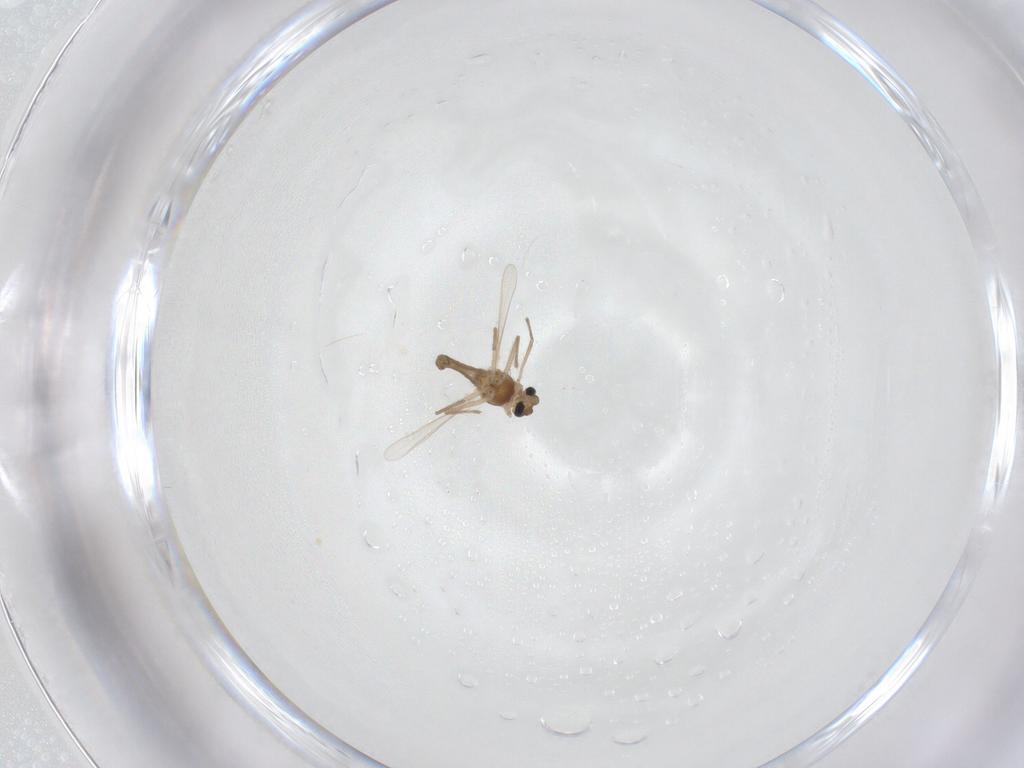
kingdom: Animalia
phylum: Arthropoda
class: Insecta
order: Diptera
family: Chironomidae
